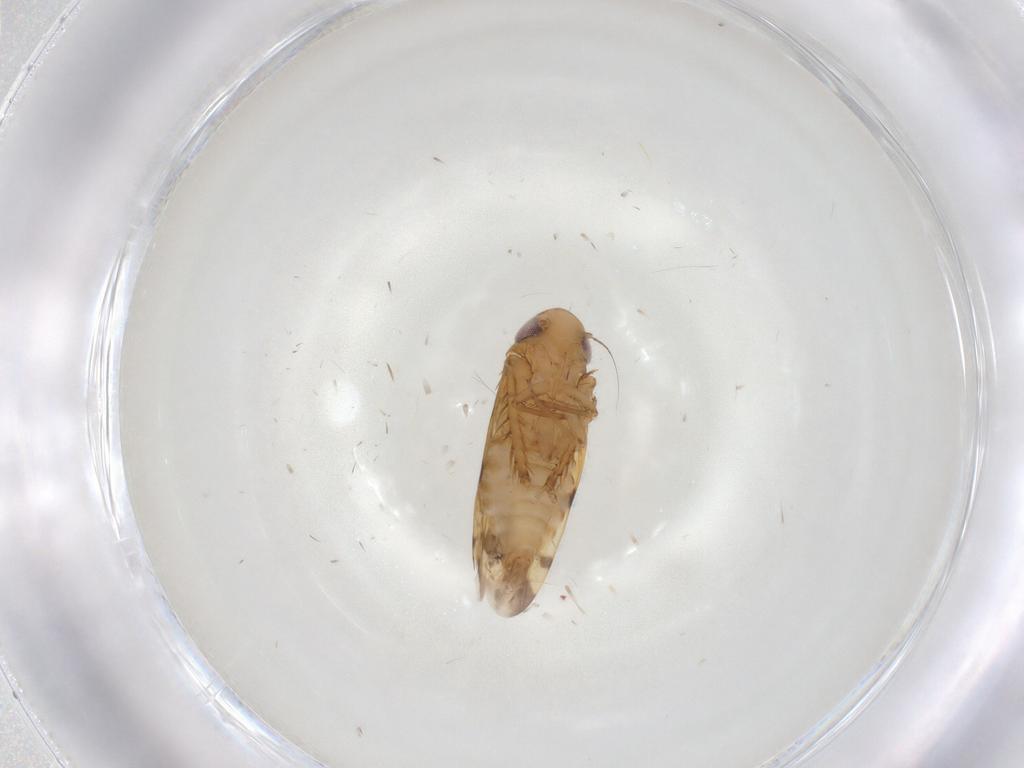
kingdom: Animalia
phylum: Arthropoda
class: Insecta
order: Hemiptera
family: Cicadellidae
